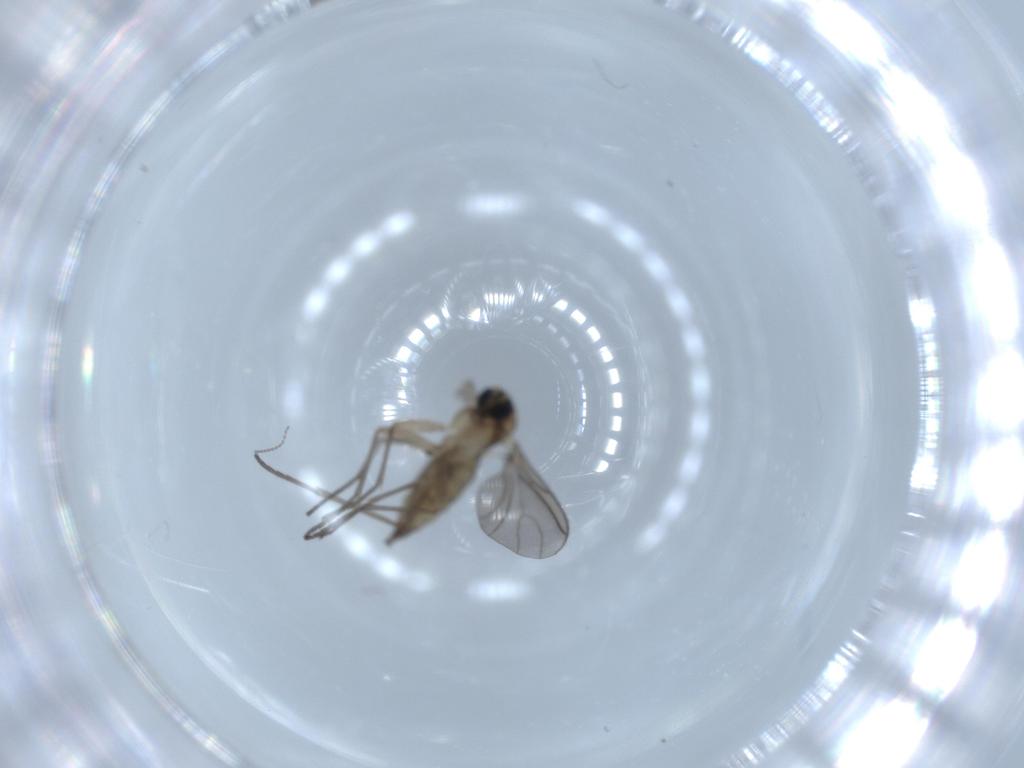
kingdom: Animalia
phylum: Arthropoda
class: Insecta
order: Diptera
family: Sciaridae
